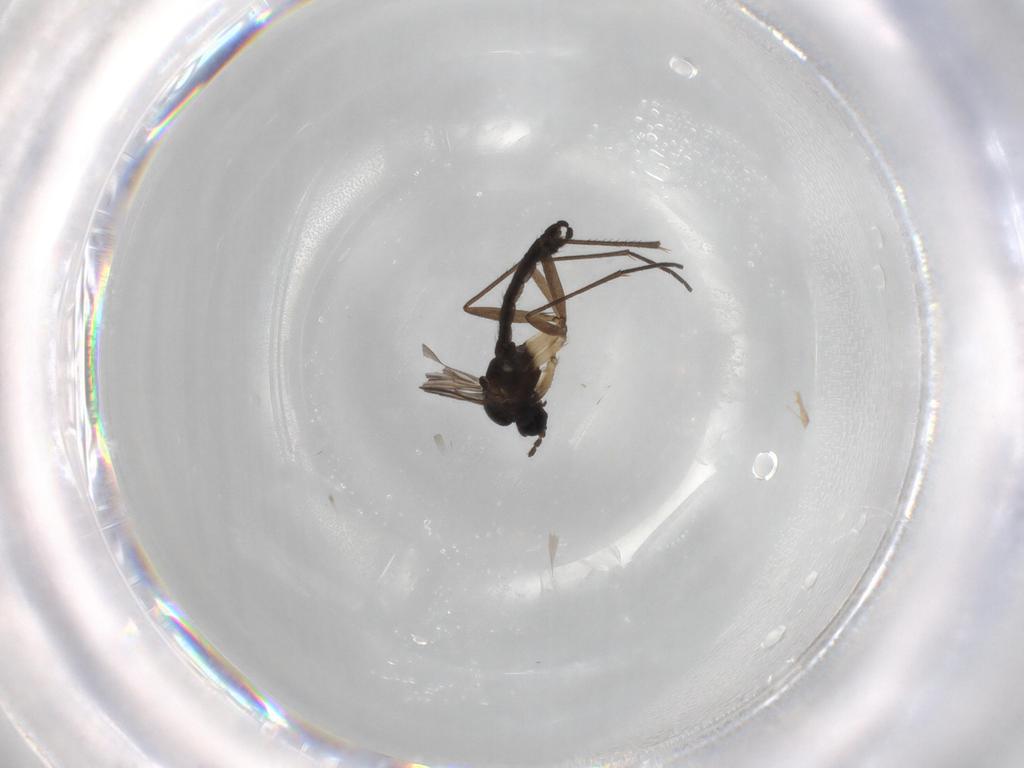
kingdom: Animalia
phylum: Arthropoda
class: Insecta
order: Diptera
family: Sciaridae
